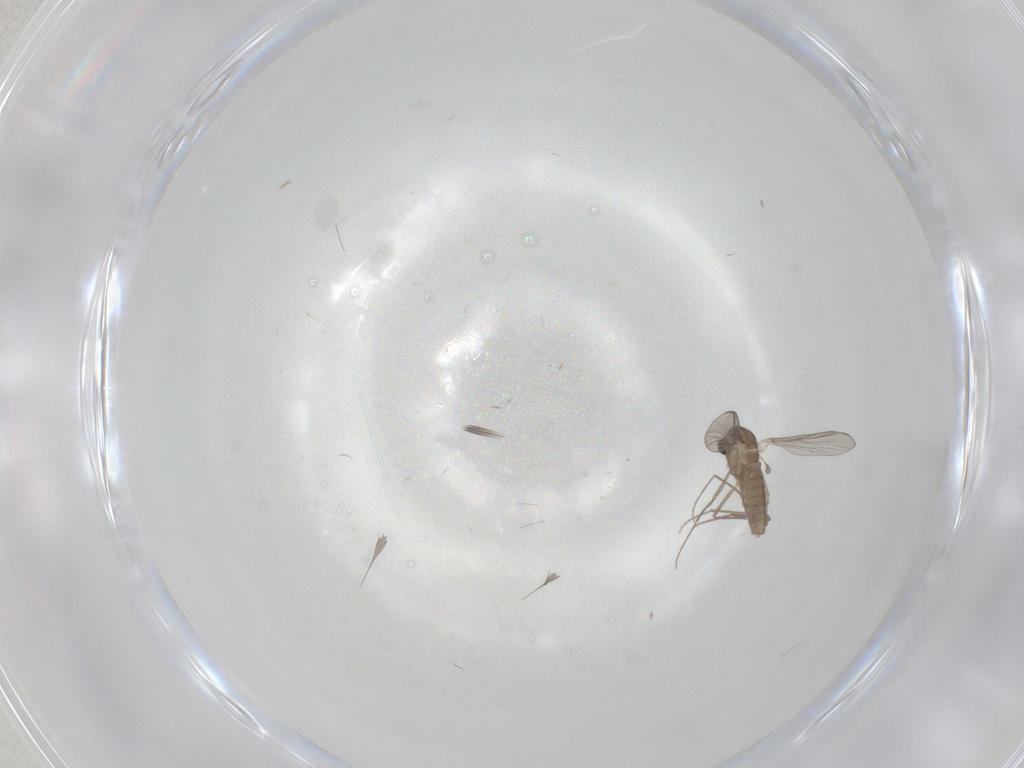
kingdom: Animalia
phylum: Arthropoda
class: Insecta
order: Diptera
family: Chironomidae
